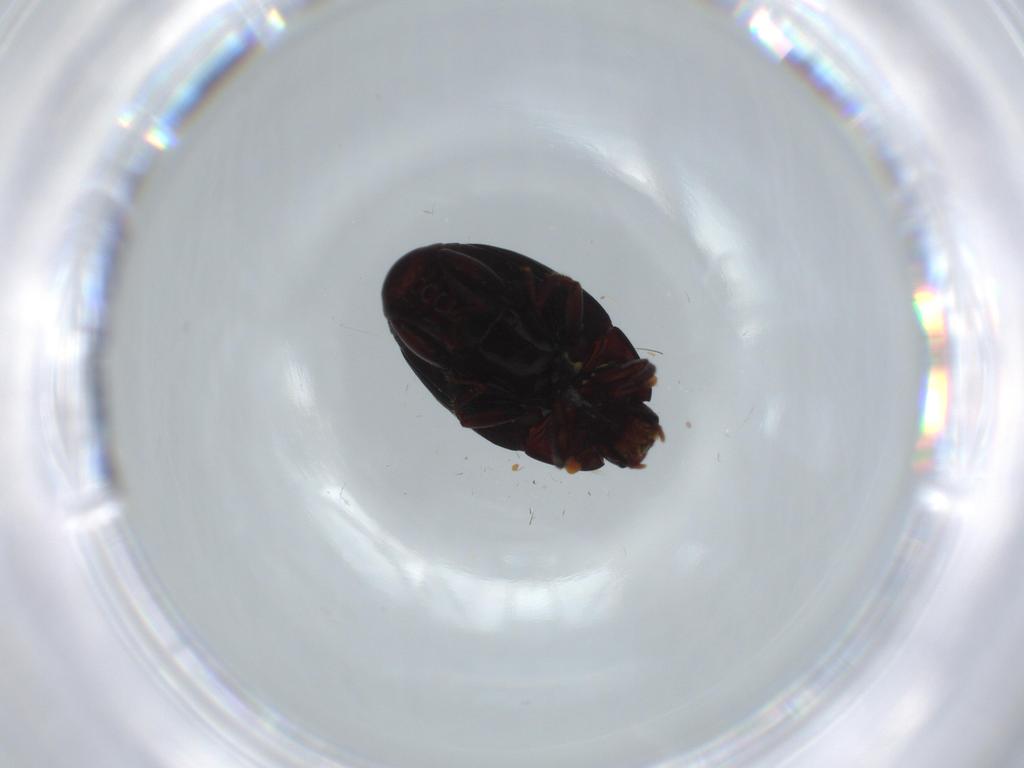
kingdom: Animalia
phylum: Arthropoda
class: Insecta
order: Coleoptera
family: Histeridae
